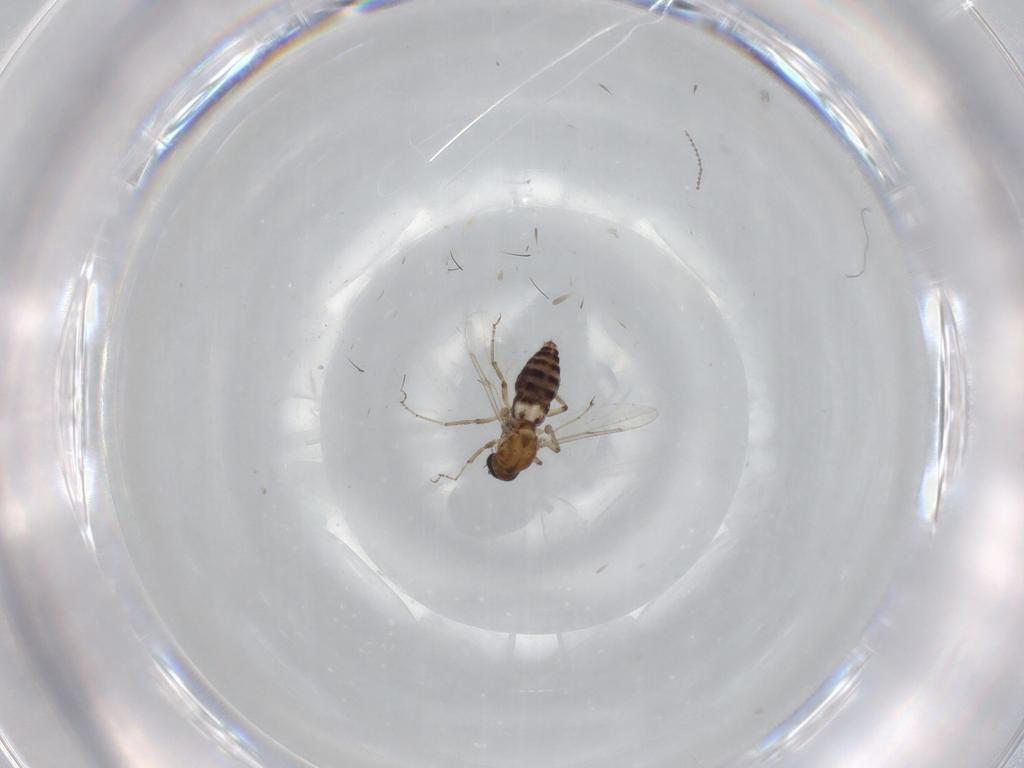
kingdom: Animalia
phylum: Arthropoda
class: Insecta
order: Diptera
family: Ceratopogonidae
